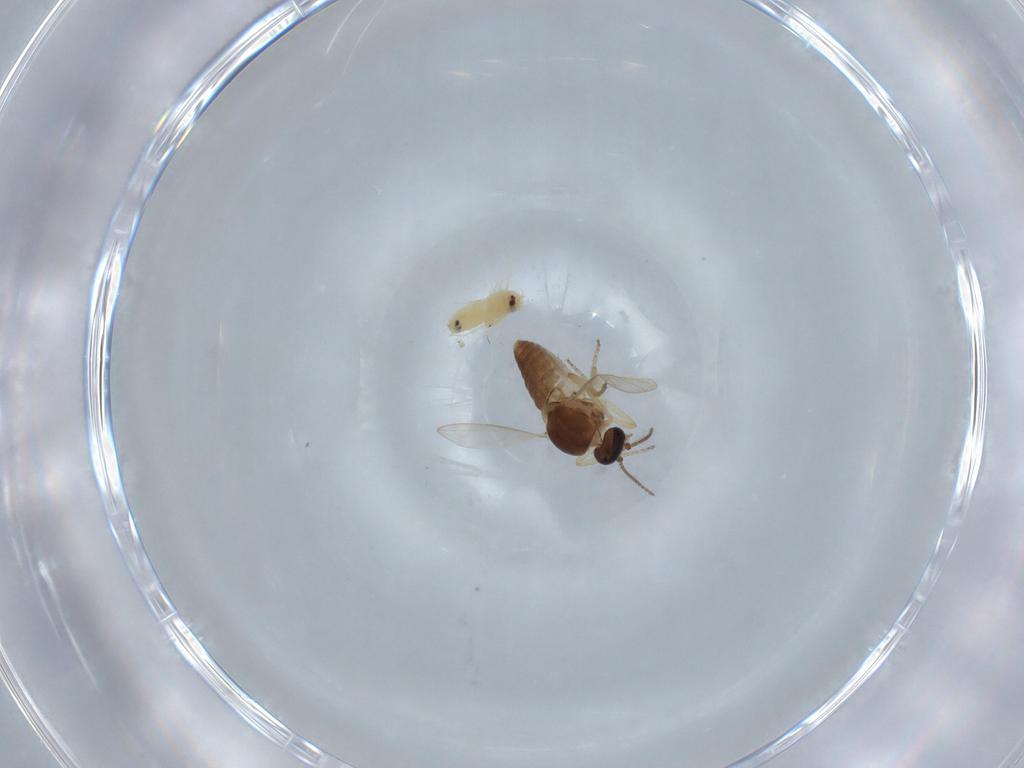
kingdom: Animalia
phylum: Arthropoda
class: Insecta
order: Diptera
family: Ceratopogonidae
